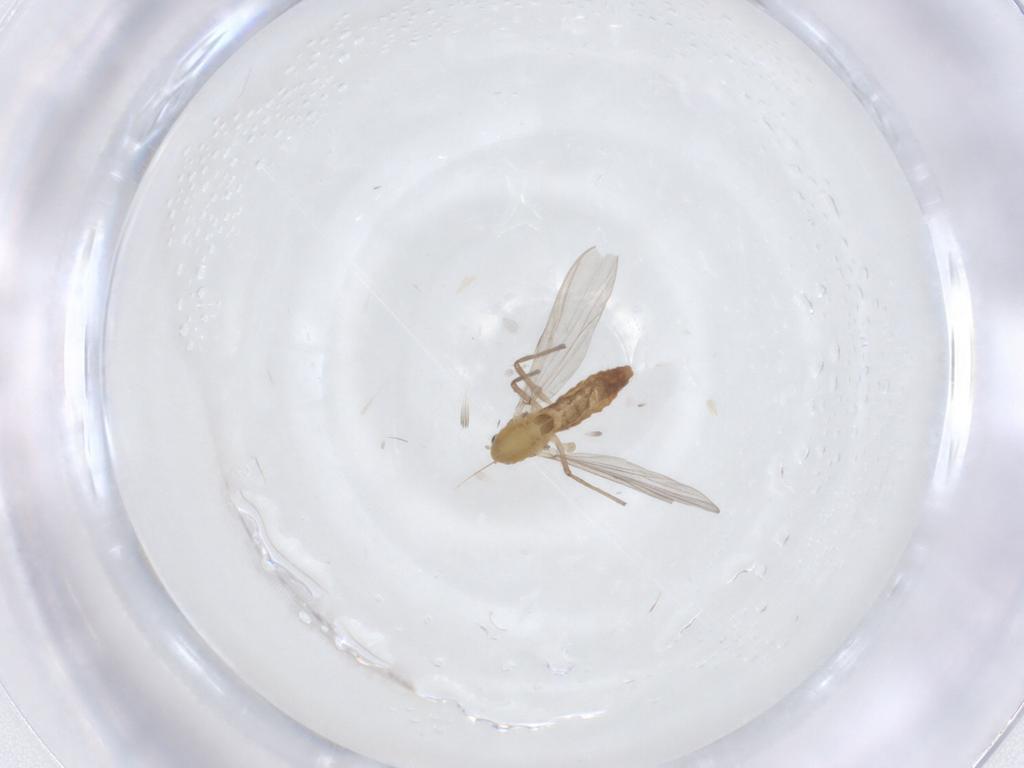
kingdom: Animalia
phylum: Arthropoda
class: Insecta
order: Diptera
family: Chironomidae
